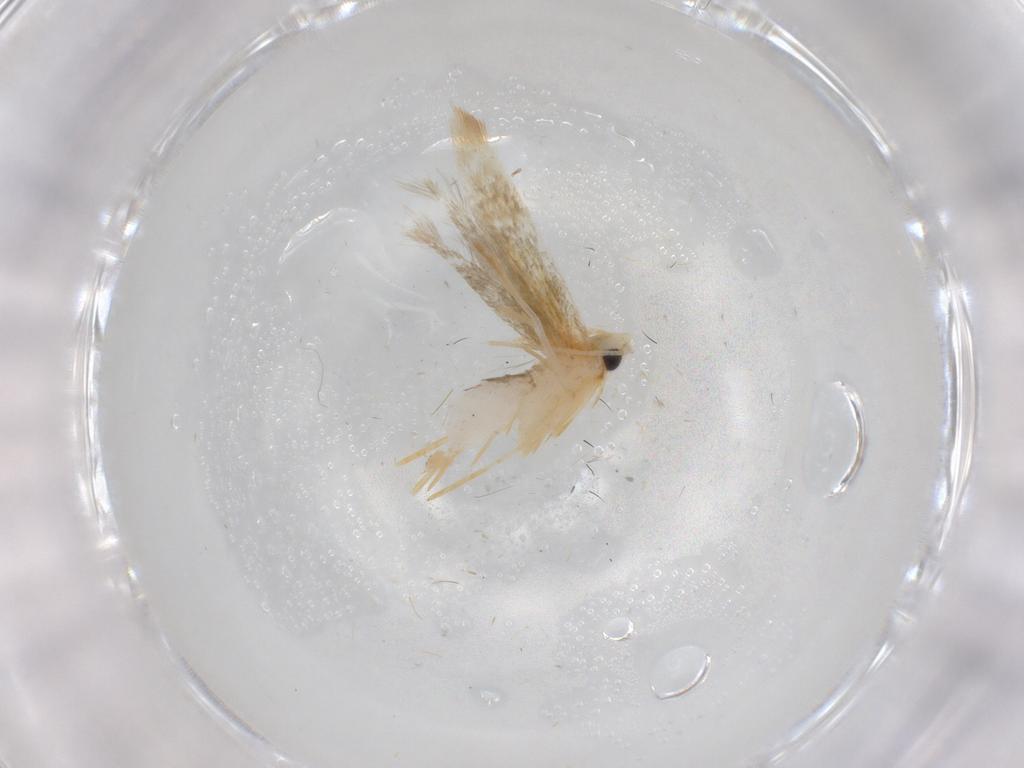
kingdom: Animalia
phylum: Arthropoda
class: Insecta
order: Lepidoptera
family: Tineidae
